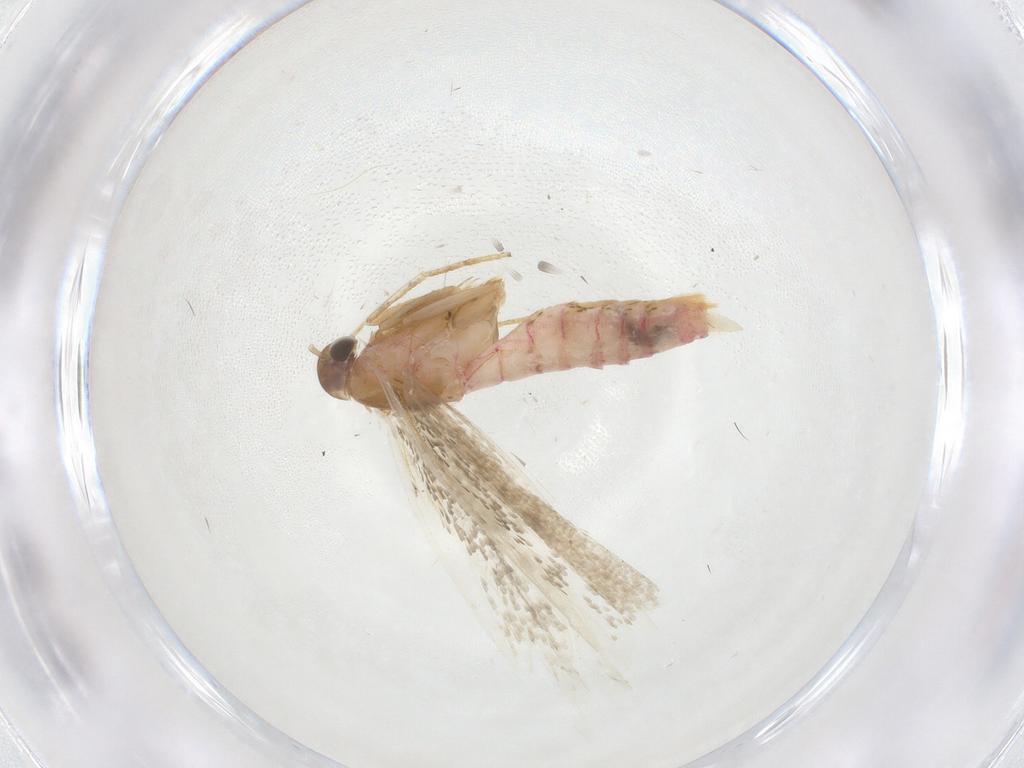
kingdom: Animalia
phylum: Arthropoda
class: Insecta
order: Lepidoptera
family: Crambidae
